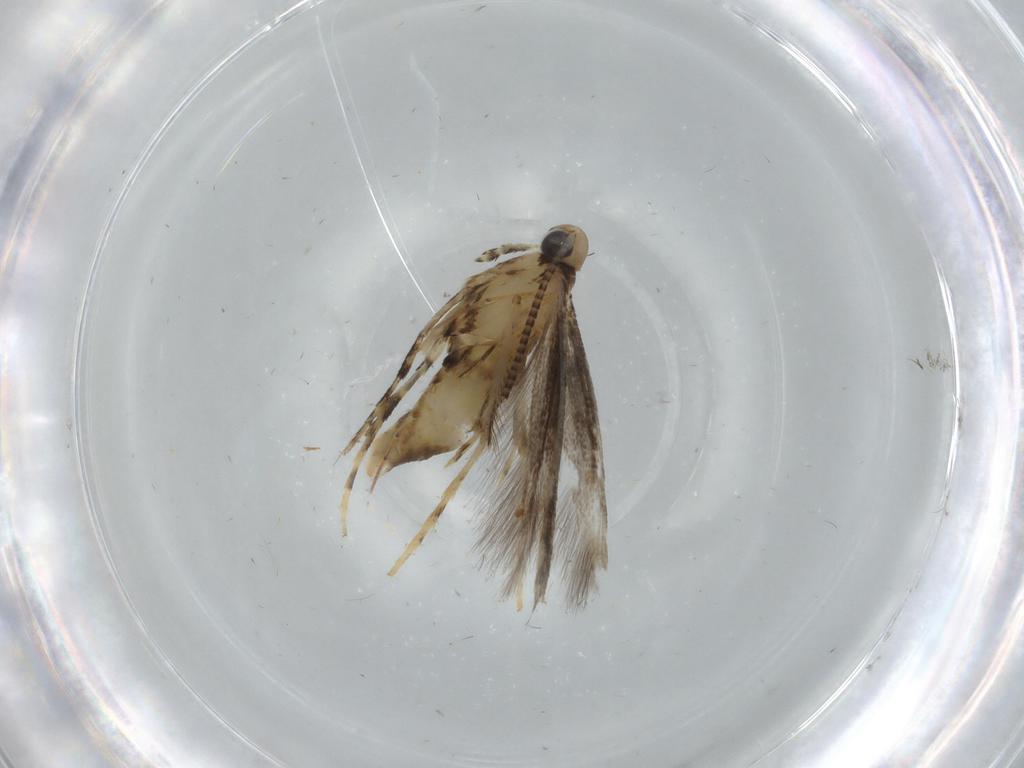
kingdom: Animalia
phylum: Arthropoda
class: Insecta
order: Lepidoptera
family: Gracillariidae
